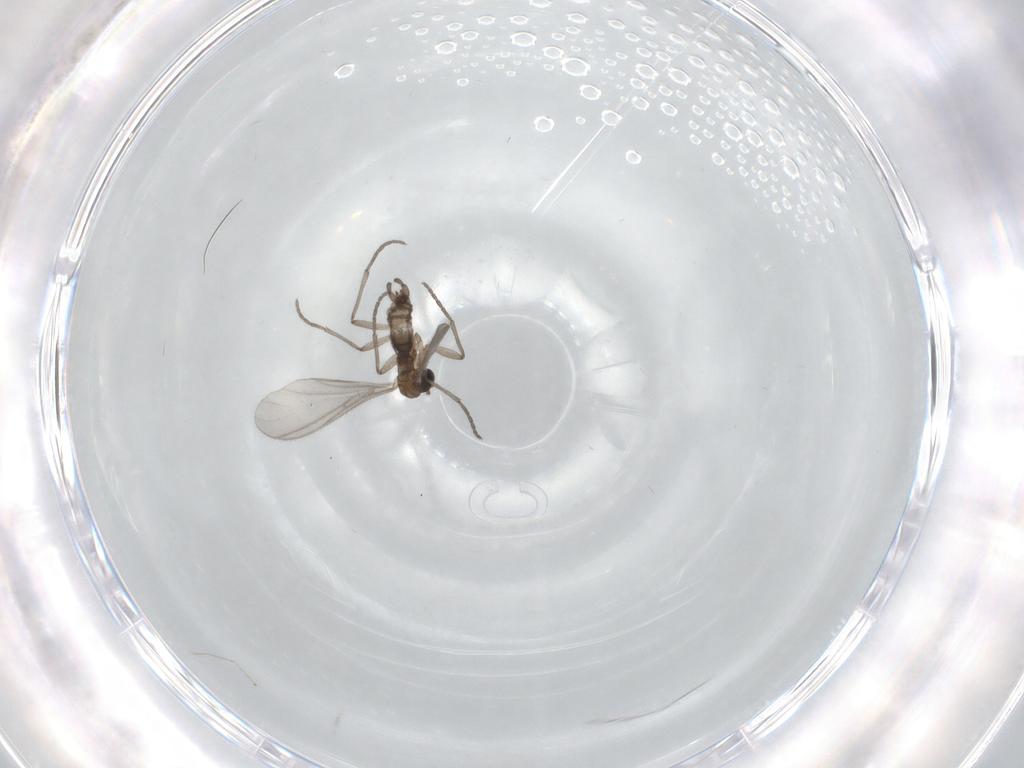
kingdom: Animalia
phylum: Arthropoda
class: Insecta
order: Diptera
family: Sciaridae
